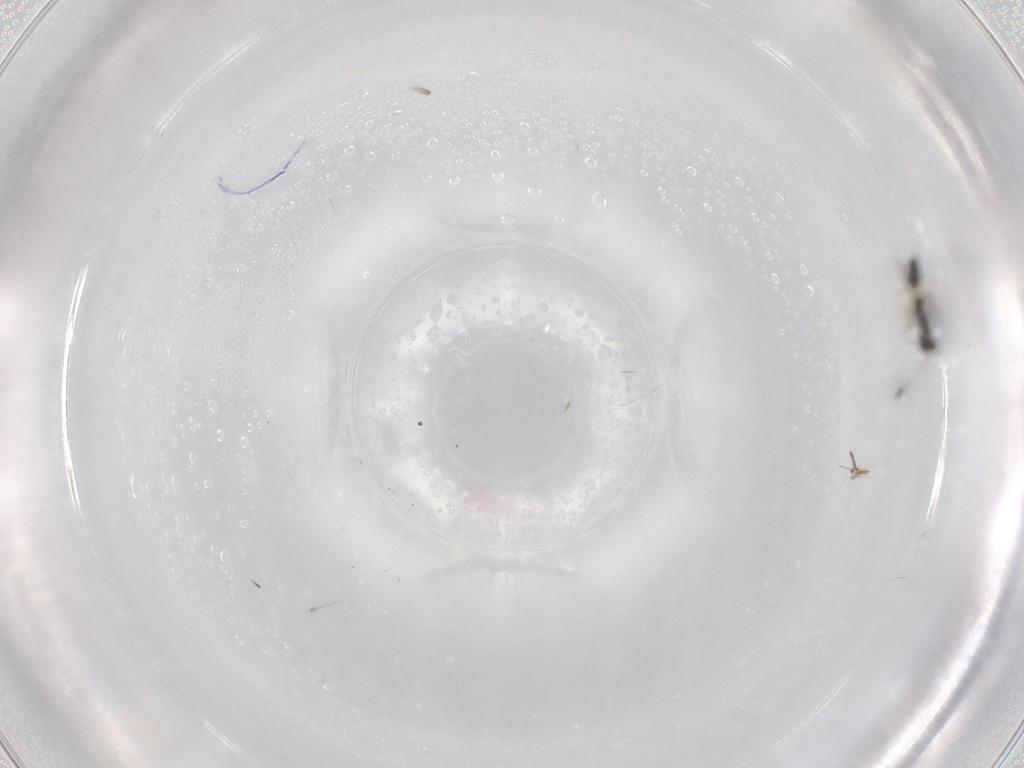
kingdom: Animalia
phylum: Arthropoda
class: Insecta
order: Hymenoptera
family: Mymaridae
